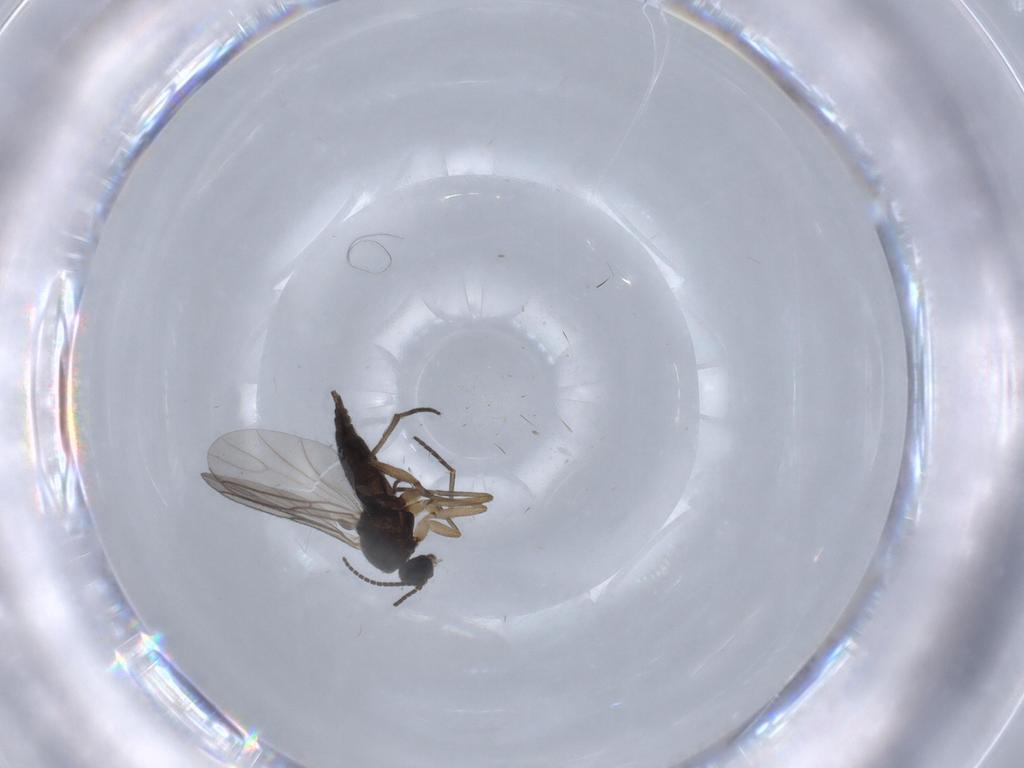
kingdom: Animalia
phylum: Arthropoda
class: Insecta
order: Diptera
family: Sciaridae
